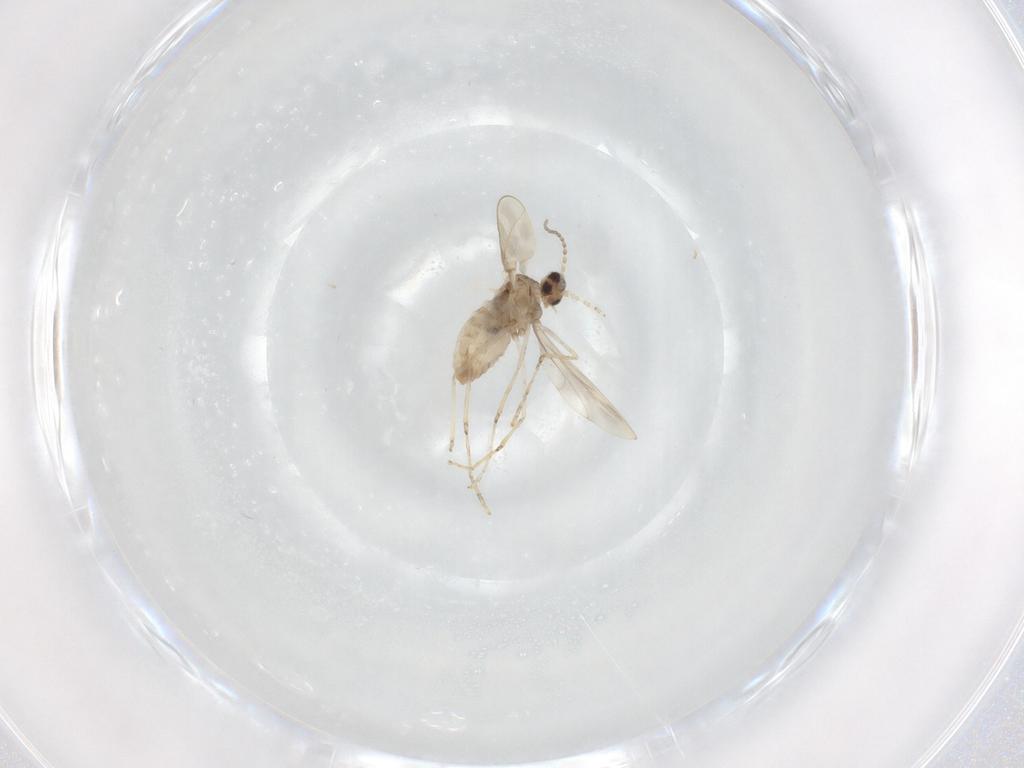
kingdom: Animalia
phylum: Arthropoda
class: Insecta
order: Diptera
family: Cecidomyiidae
